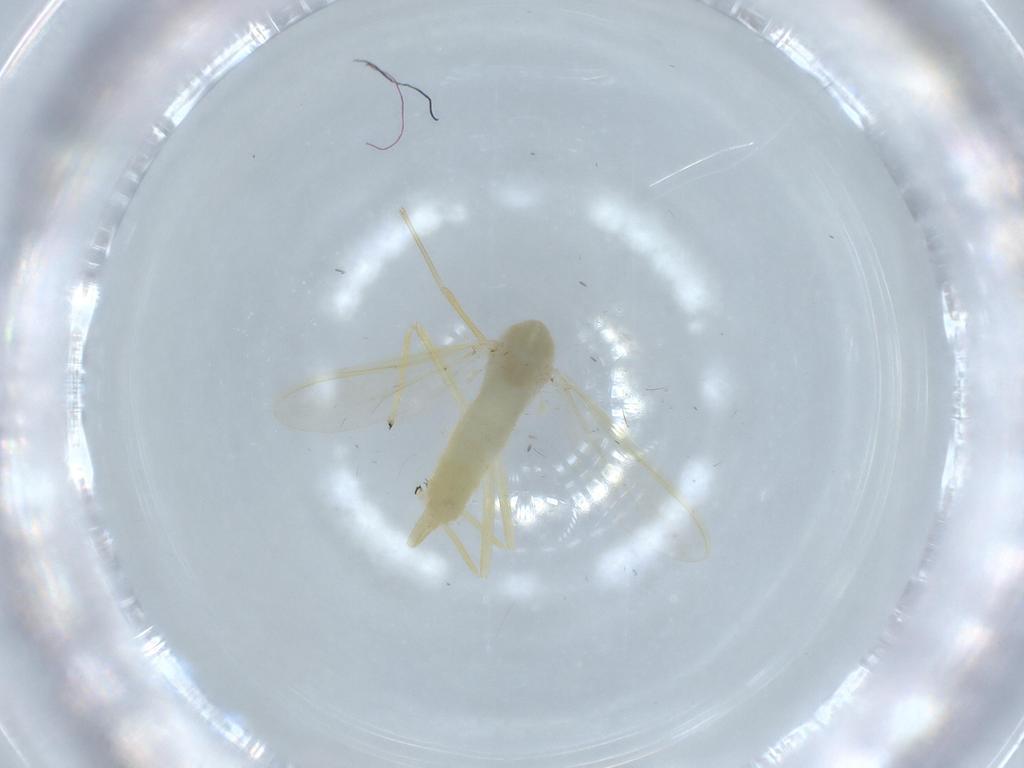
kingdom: Animalia
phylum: Arthropoda
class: Insecta
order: Diptera
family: Chironomidae
